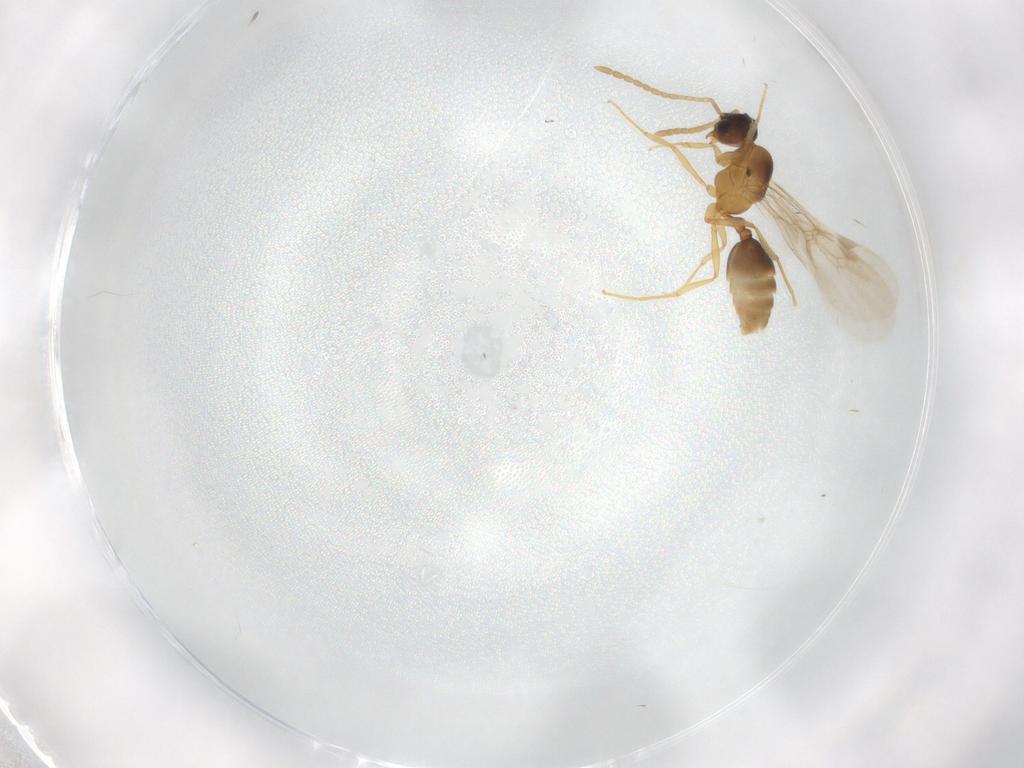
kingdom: Animalia
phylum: Arthropoda
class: Insecta
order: Hymenoptera
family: Formicidae
